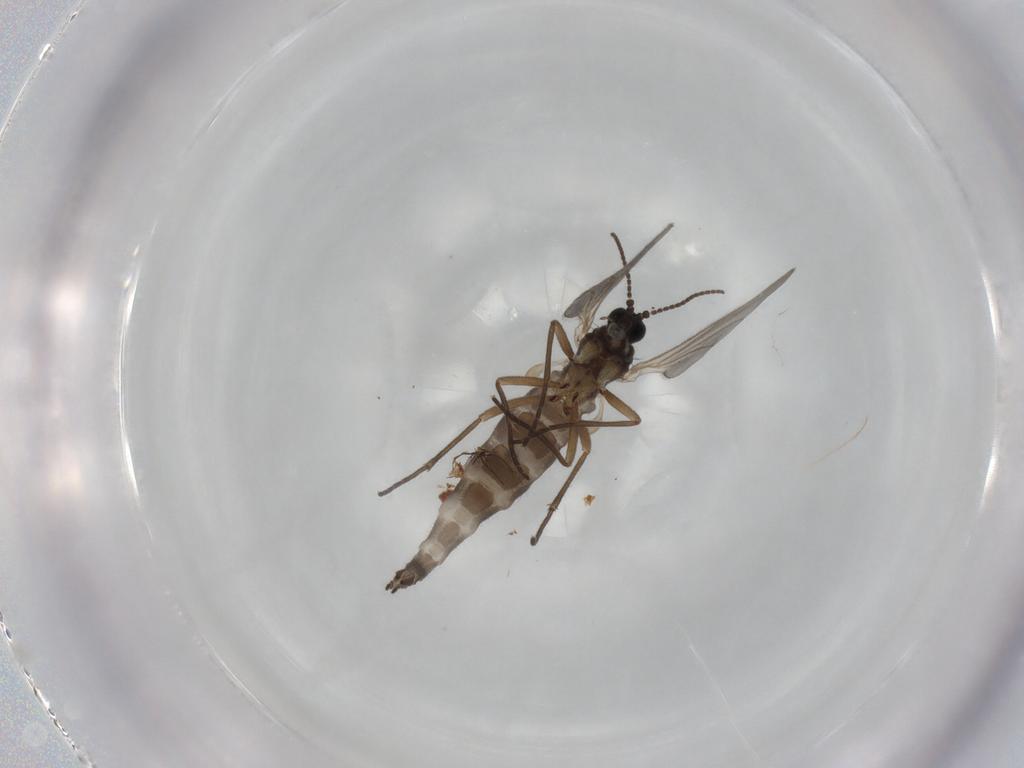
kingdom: Animalia
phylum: Arthropoda
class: Insecta
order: Diptera
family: Sciaridae
